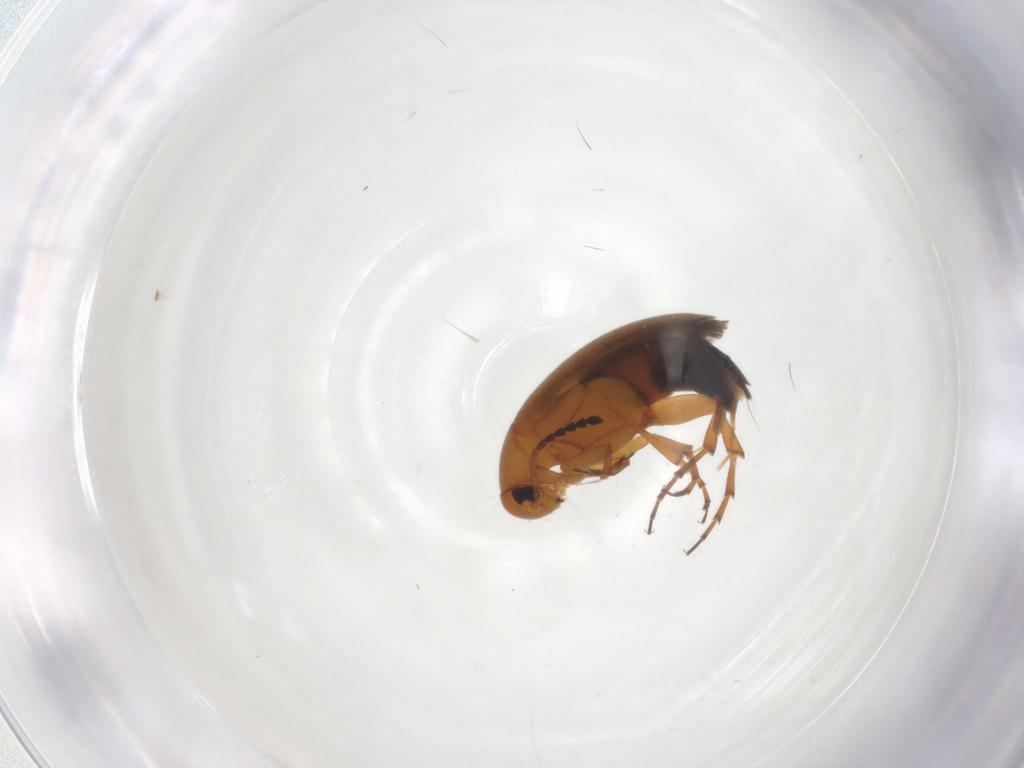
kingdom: Animalia
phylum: Arthropoda
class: Insecta
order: Coleoptera
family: Scraptiidae
